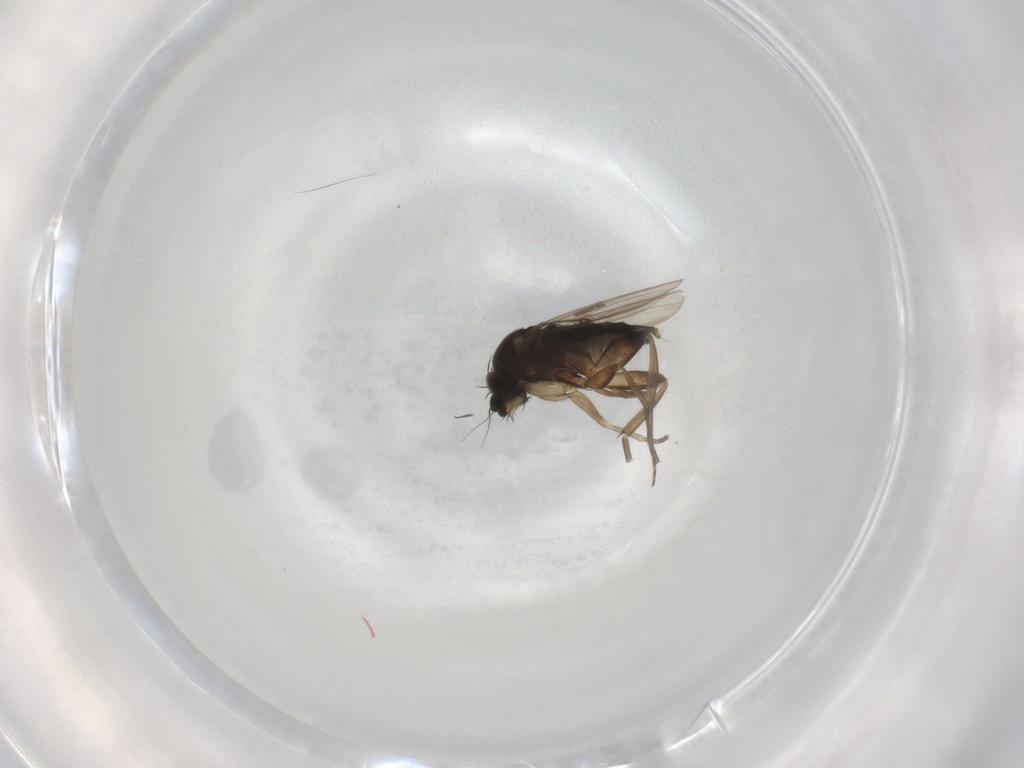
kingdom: Animalia
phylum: Arthropoda
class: Insecta
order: Diptera
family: Phoridae
